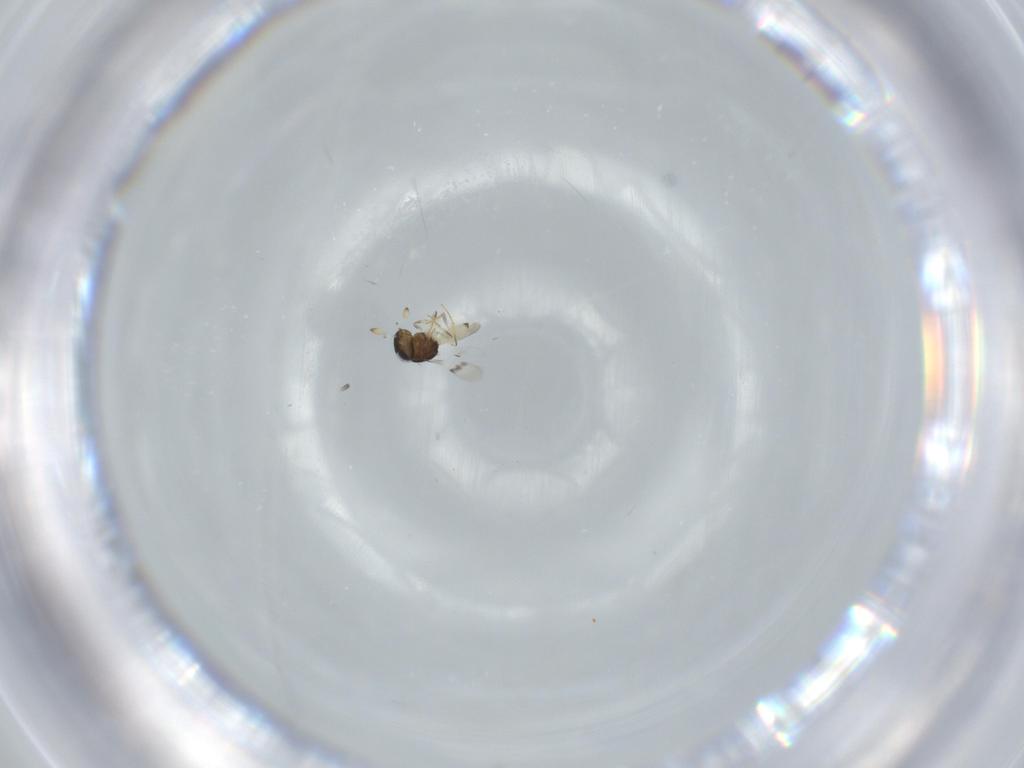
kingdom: Animalia
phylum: Arthropoda
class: Insecta
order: Hymenoptera
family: Scelionidae
